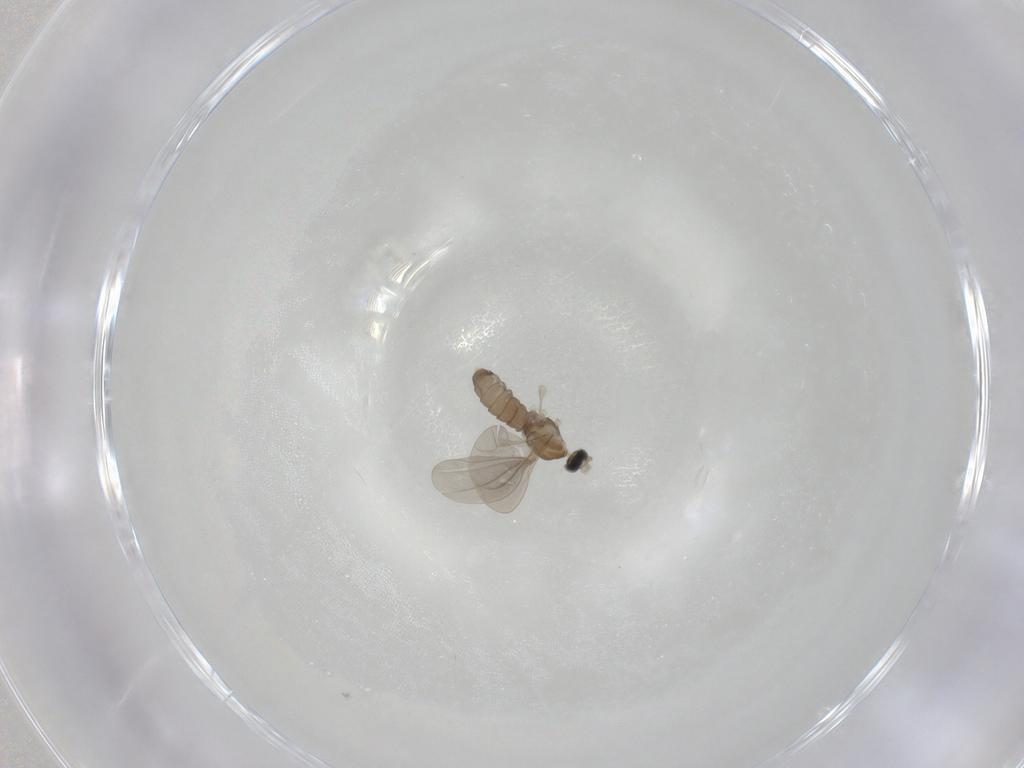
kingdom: Animalia
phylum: Arthropoda
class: Insecta
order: Diptera
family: Cecidomyiidae
